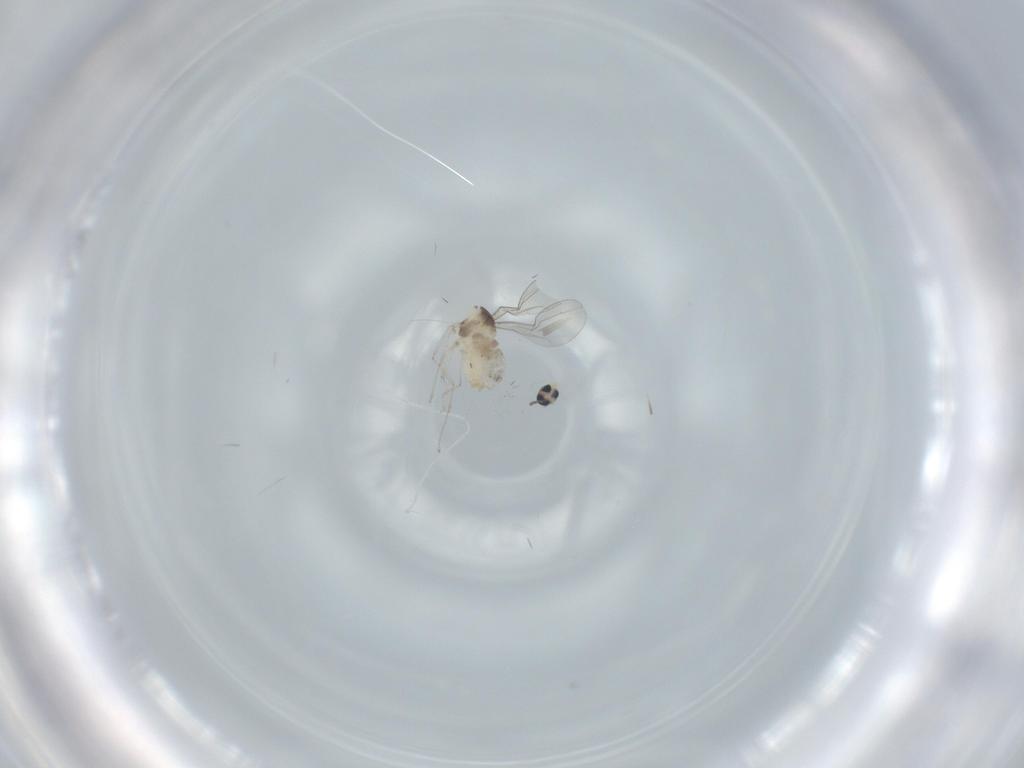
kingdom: Animalia
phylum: Arthropoda
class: Insecta
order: Diptera
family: Cecidomyiidae
